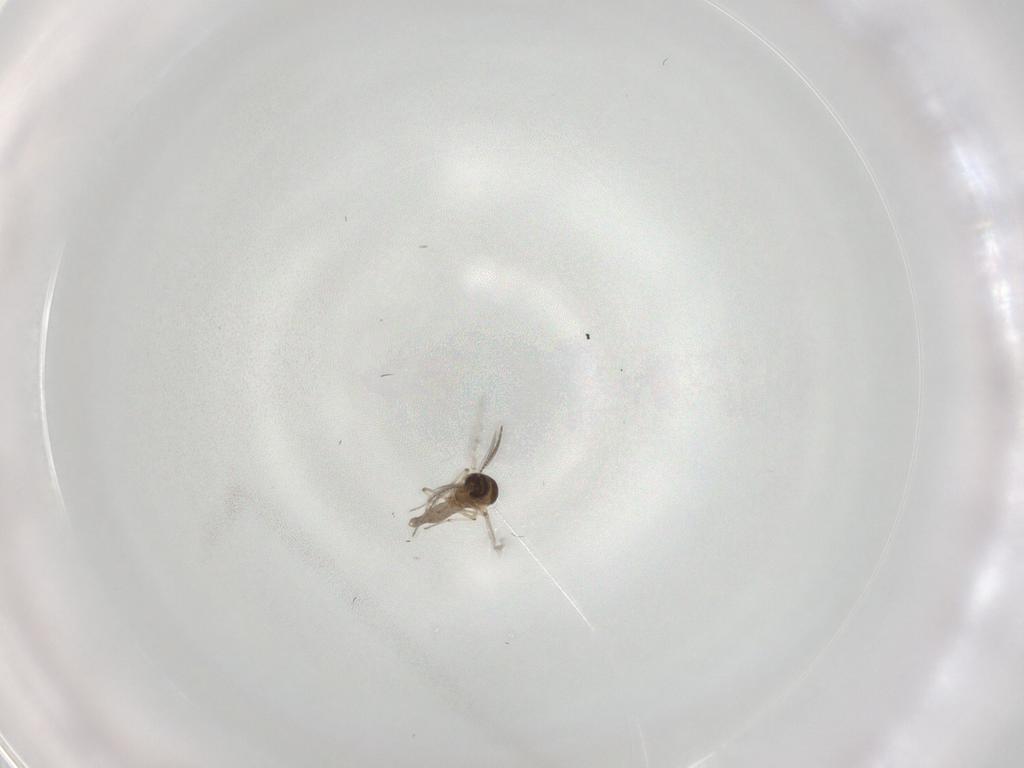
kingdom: Animalia
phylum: Arthropoda
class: Insecta
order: Diptera
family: Ceratopogonidae
